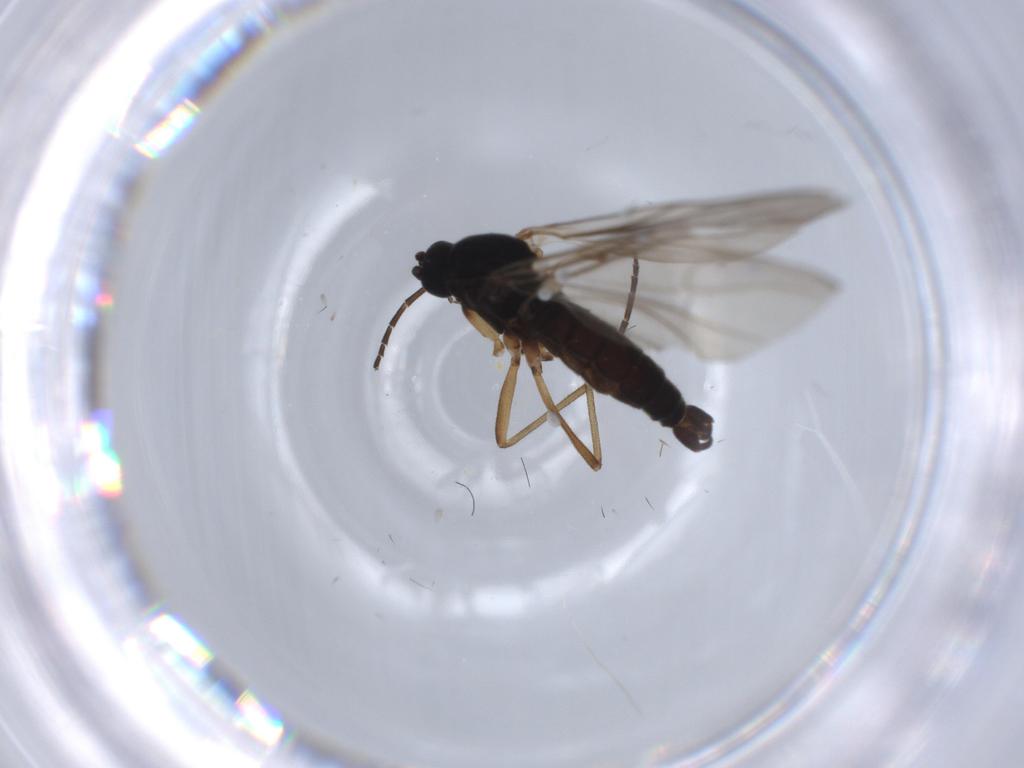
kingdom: Animalia
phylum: Arthropoda
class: Insecta
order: Diptera
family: Sciaridae
